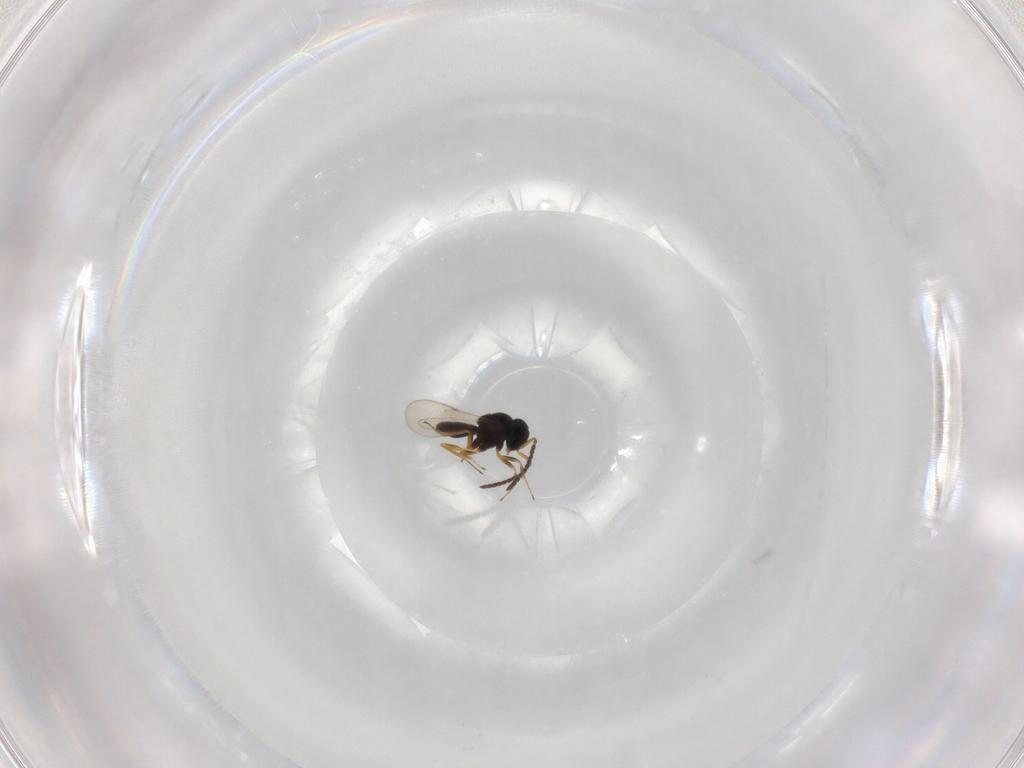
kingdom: Animalia
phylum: Arthropoda
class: Insecta
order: Hymenoptera
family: Scelionidae
